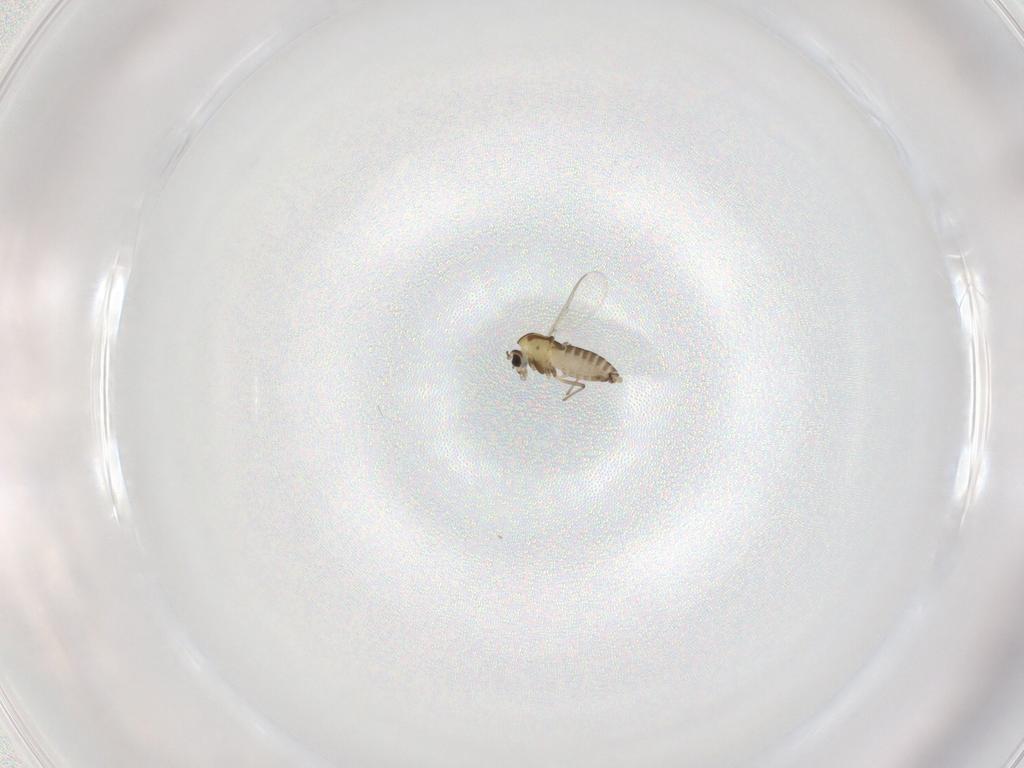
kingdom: Animalia
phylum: Arthropoda
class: Insecta
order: Diptera
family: Chironomidae
